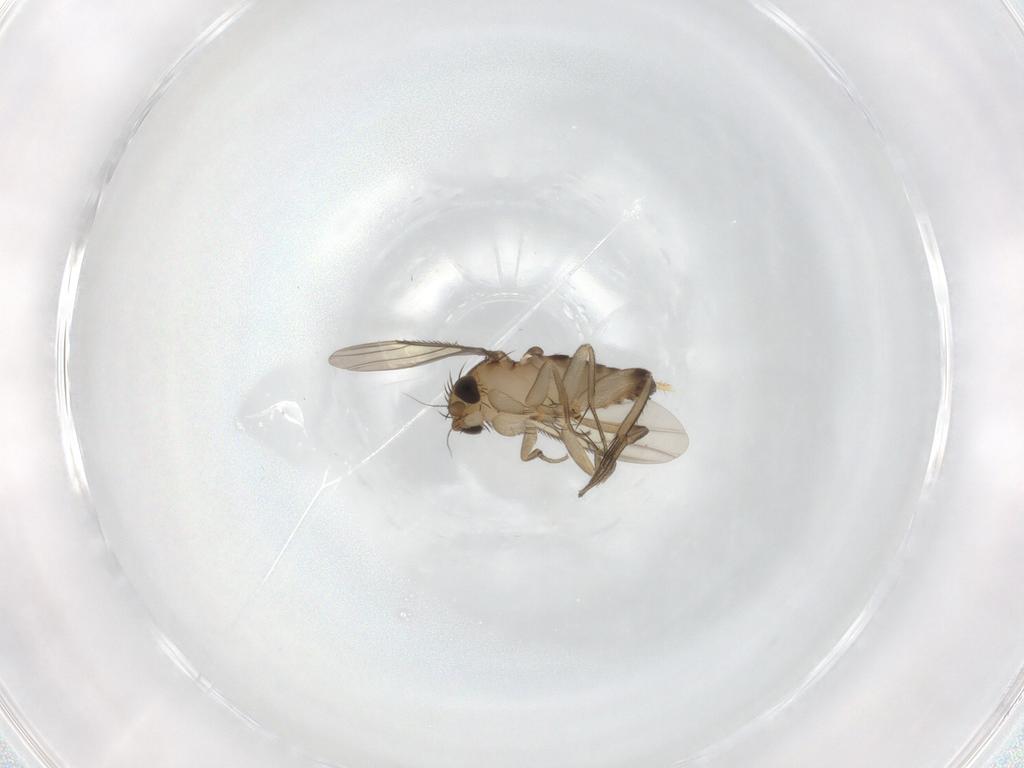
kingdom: Animalia
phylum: Arthropoda
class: Insecta
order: Diptera
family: Cecidomyiidae
